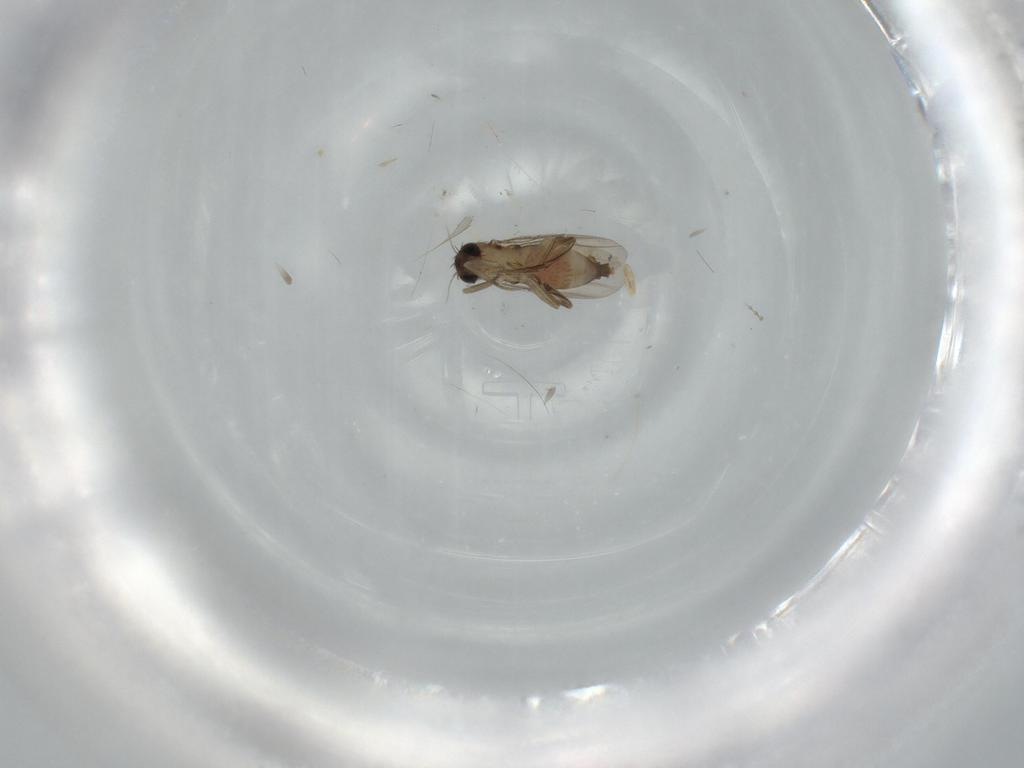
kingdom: Animalia
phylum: Arthropoda
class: Insecta
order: Diptera
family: Phoridae
